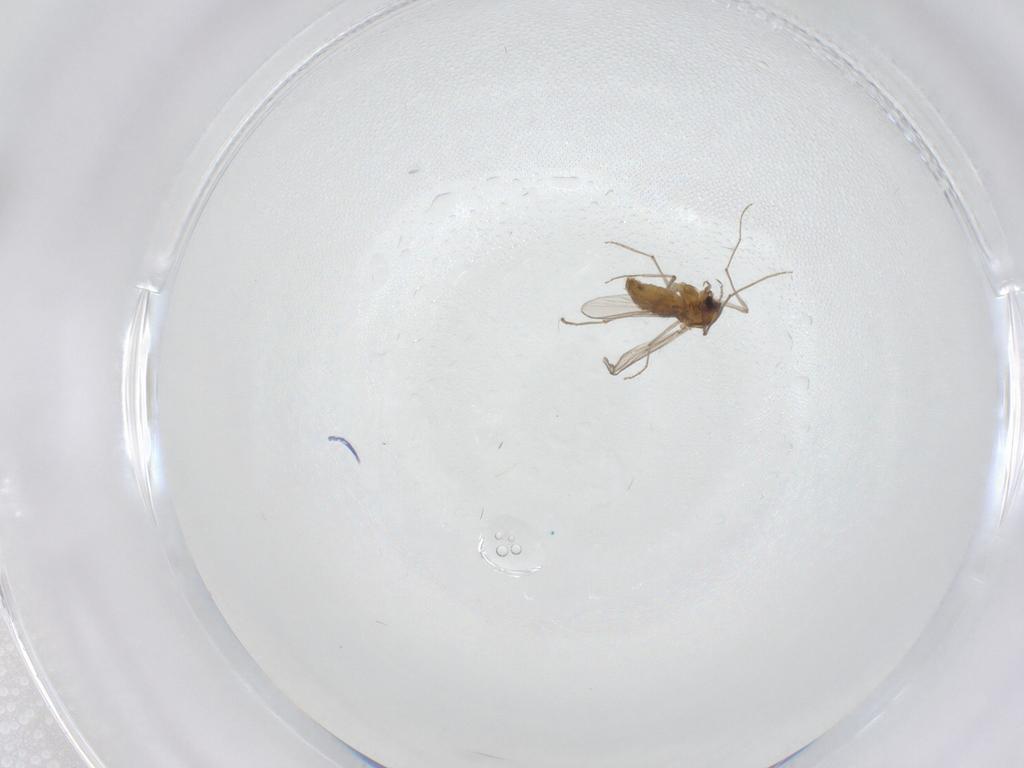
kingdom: Animalia
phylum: Arthropoda
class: Insecta
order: Diptera
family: Chironomidae
